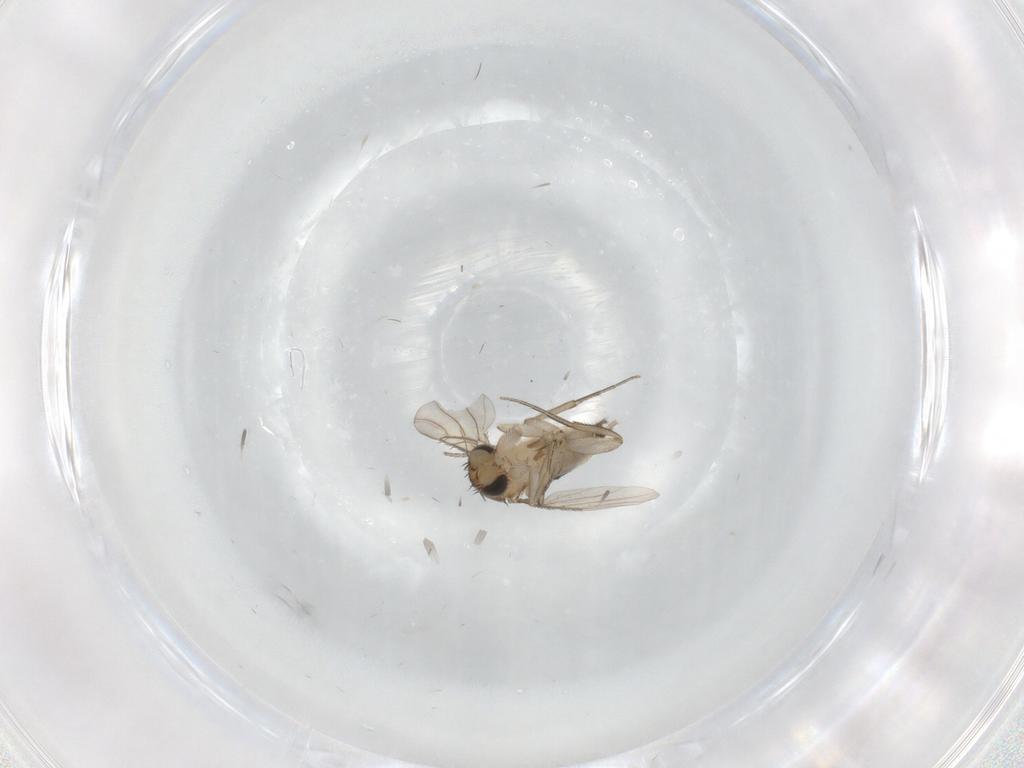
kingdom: Animalia
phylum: Arthropoda
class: Insecta
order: Diptera
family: Phoridae
